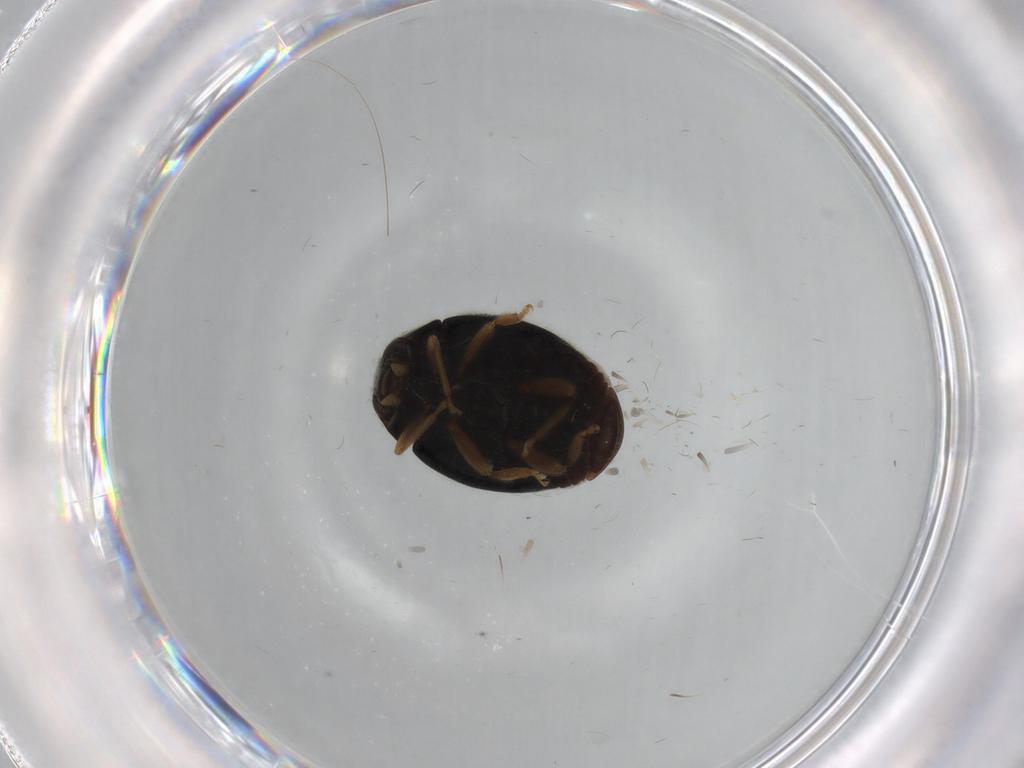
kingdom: Animalia
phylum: Arthropoda
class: Insecta
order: Coleoptera
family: Coccinellidae
